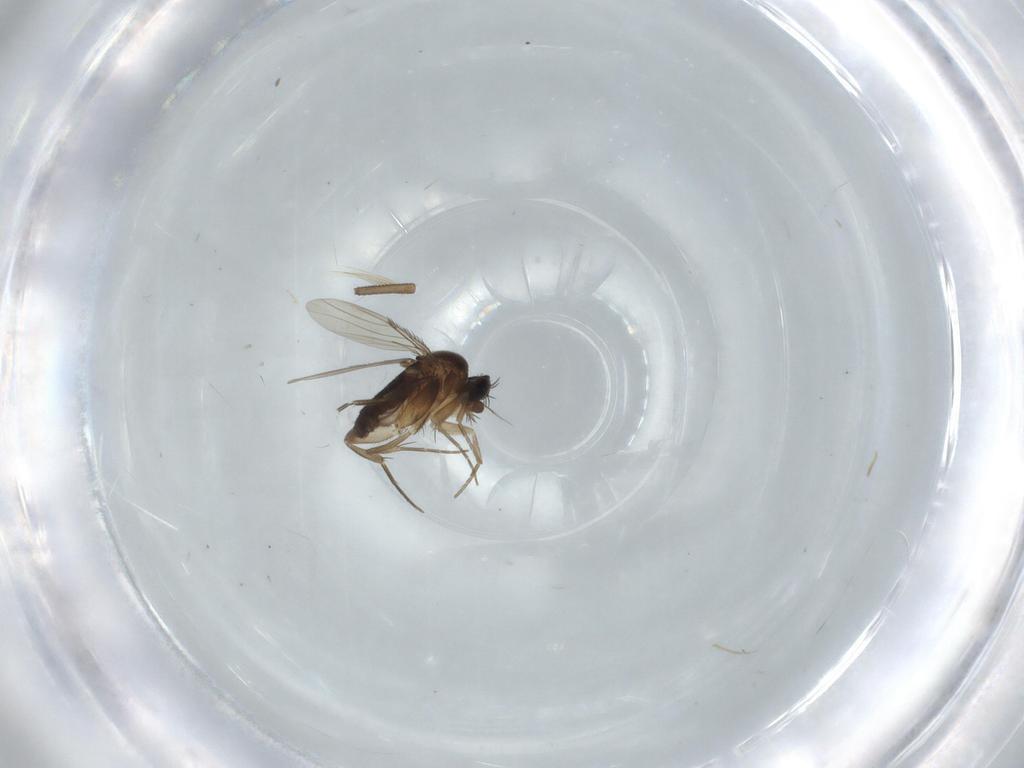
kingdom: Animalia
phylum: Arthropoda
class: Insecta
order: Diptera
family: Phoridae
